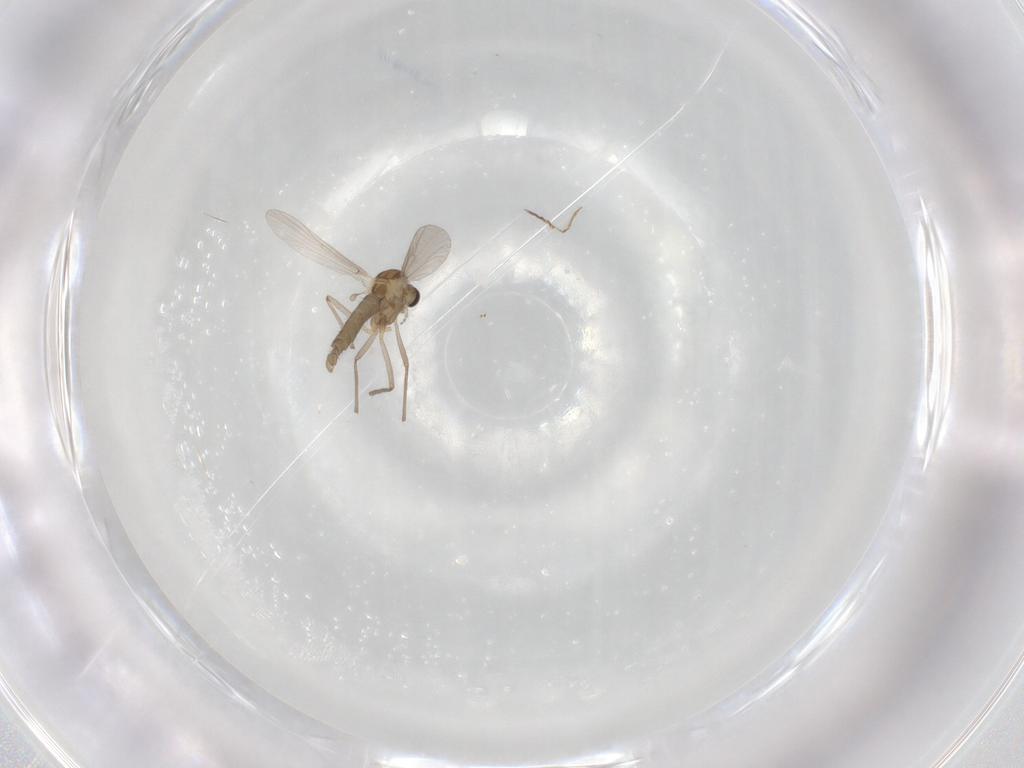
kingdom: Animalia
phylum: Arthropoda
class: Insecta
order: Diptera
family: Cecidomyiidae
